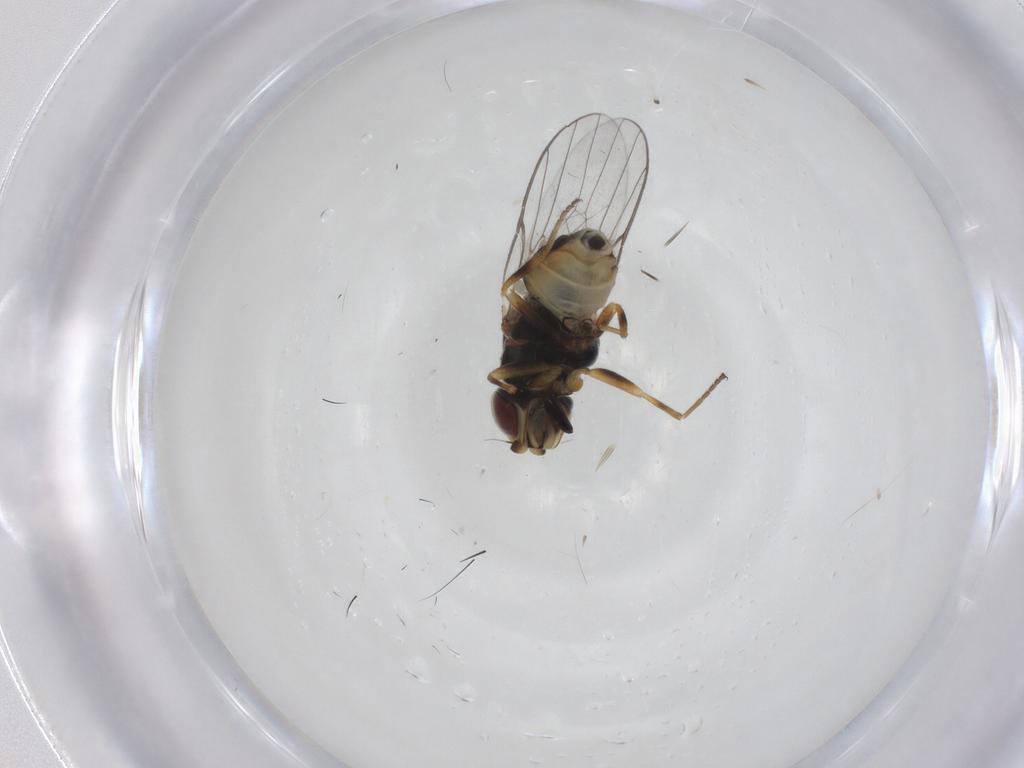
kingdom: Animalia
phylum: Arthropoda
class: Insecta
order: Diptera
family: Chloropidae
